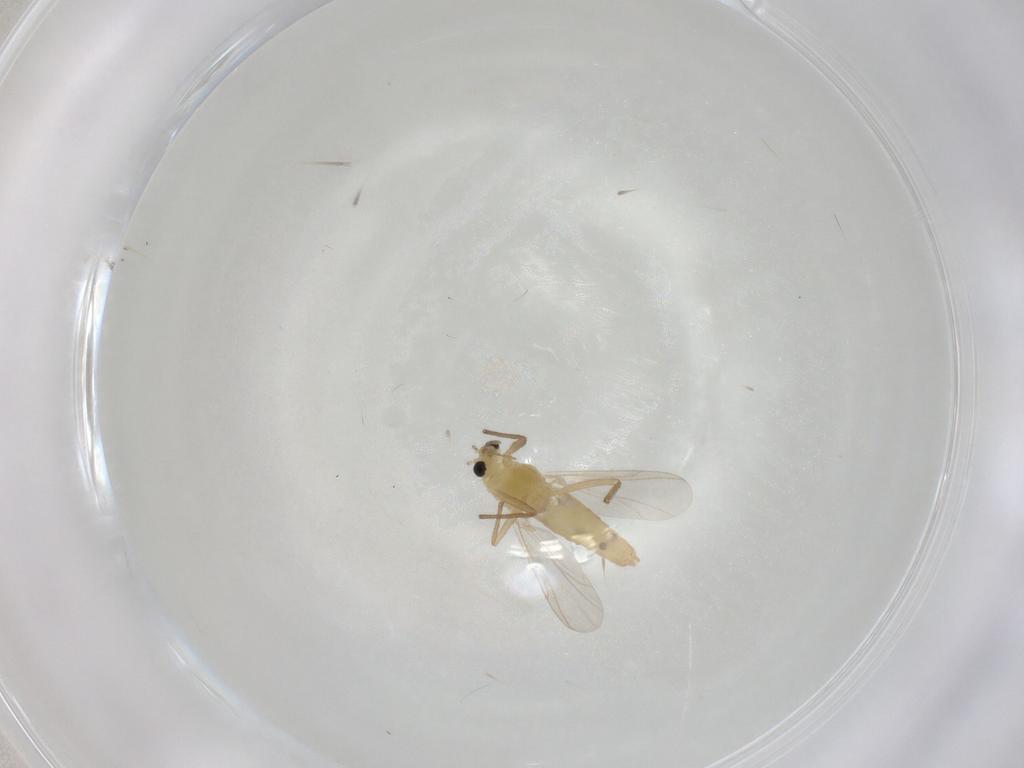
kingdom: Animalia
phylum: Arthropoda
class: Insecta
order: Diptera
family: Chironomidae
